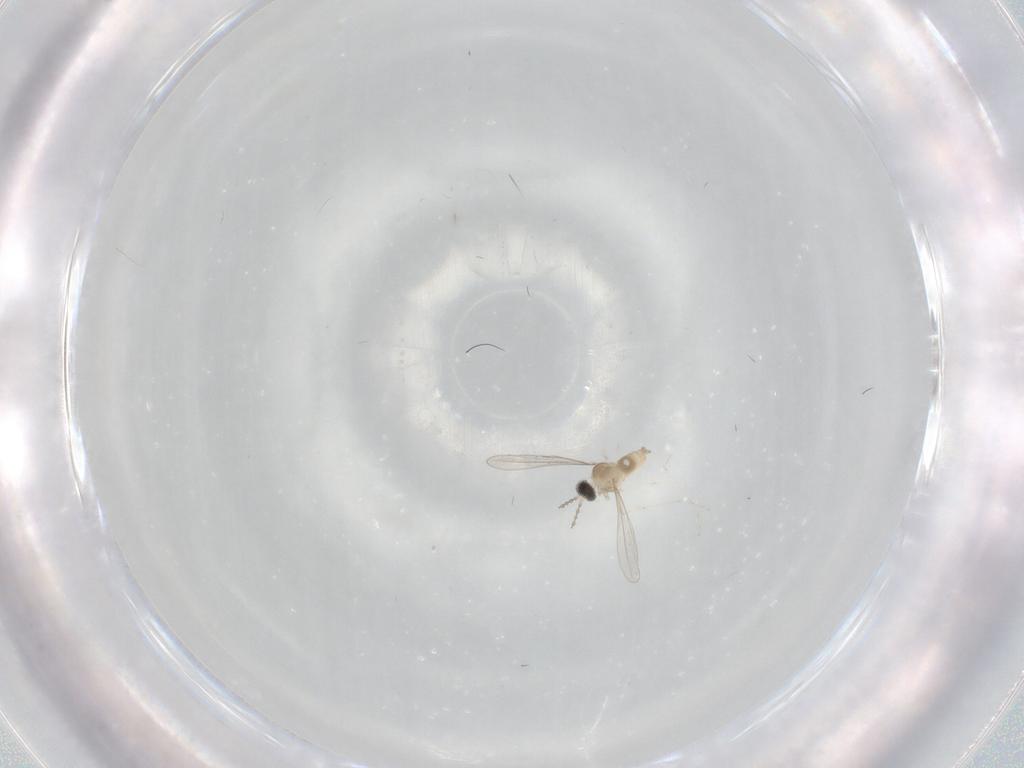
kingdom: Animalia
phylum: Arthropoda
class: Insecta
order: Diptera
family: Cecidomyiidae
